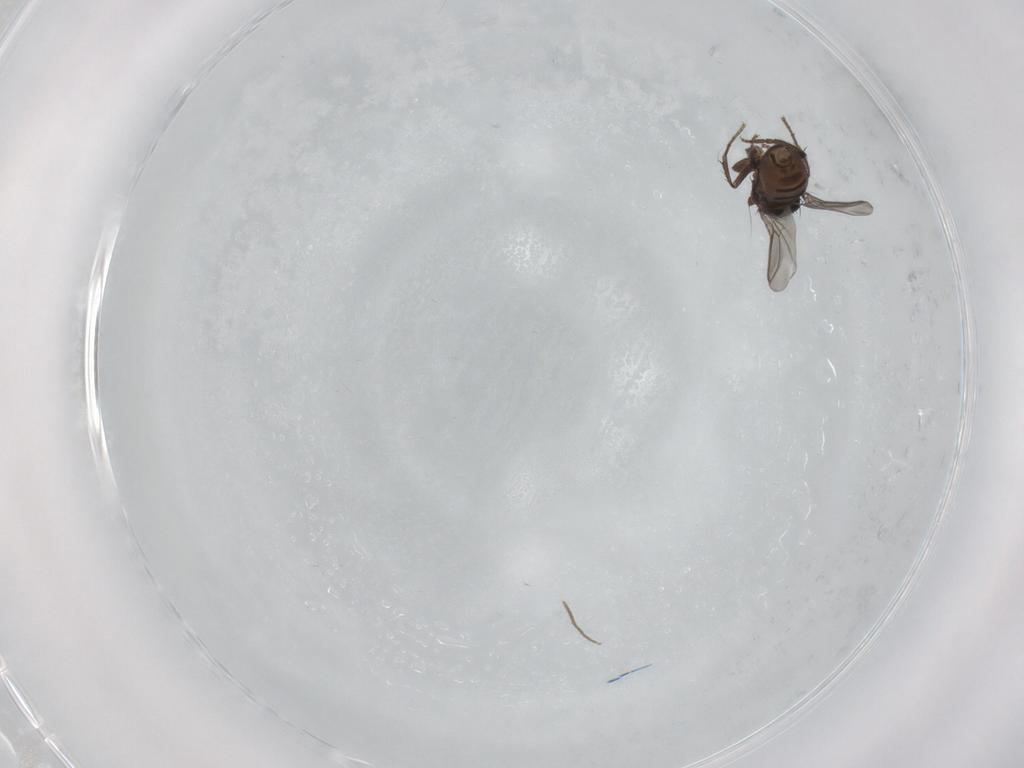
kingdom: Animalia
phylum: Arthropoda
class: Insecta
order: Diptera
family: Chironomidae
